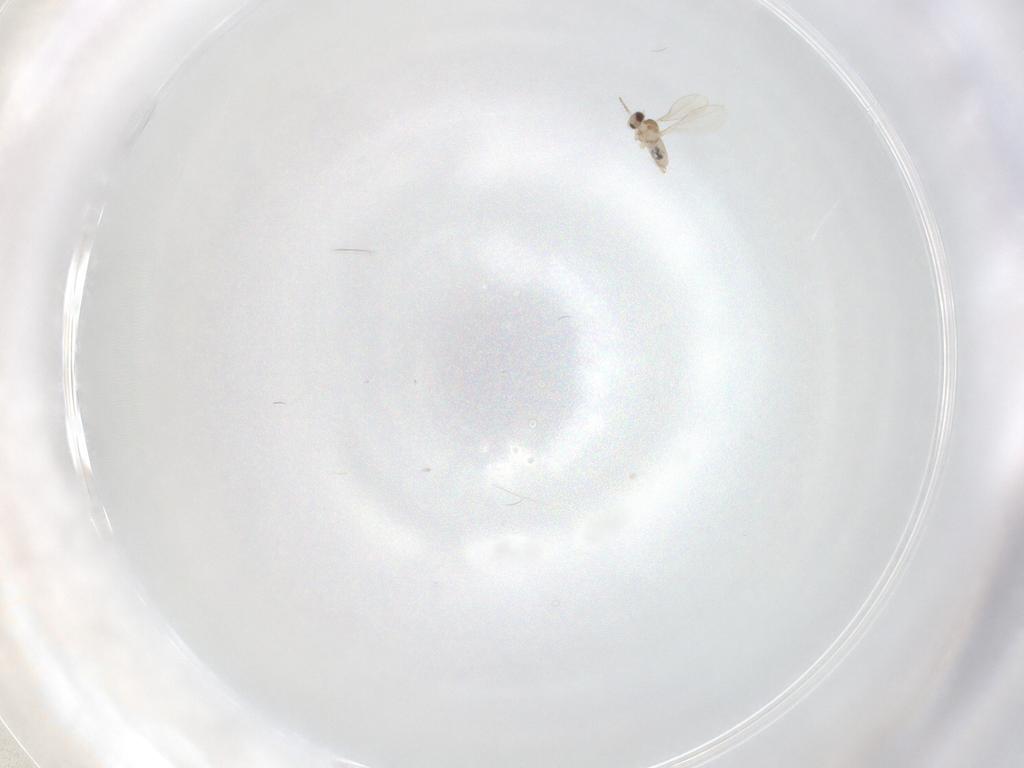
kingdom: Animalia
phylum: Arthropoda
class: Insecta
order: Diptera
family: Cecidomyiidae
